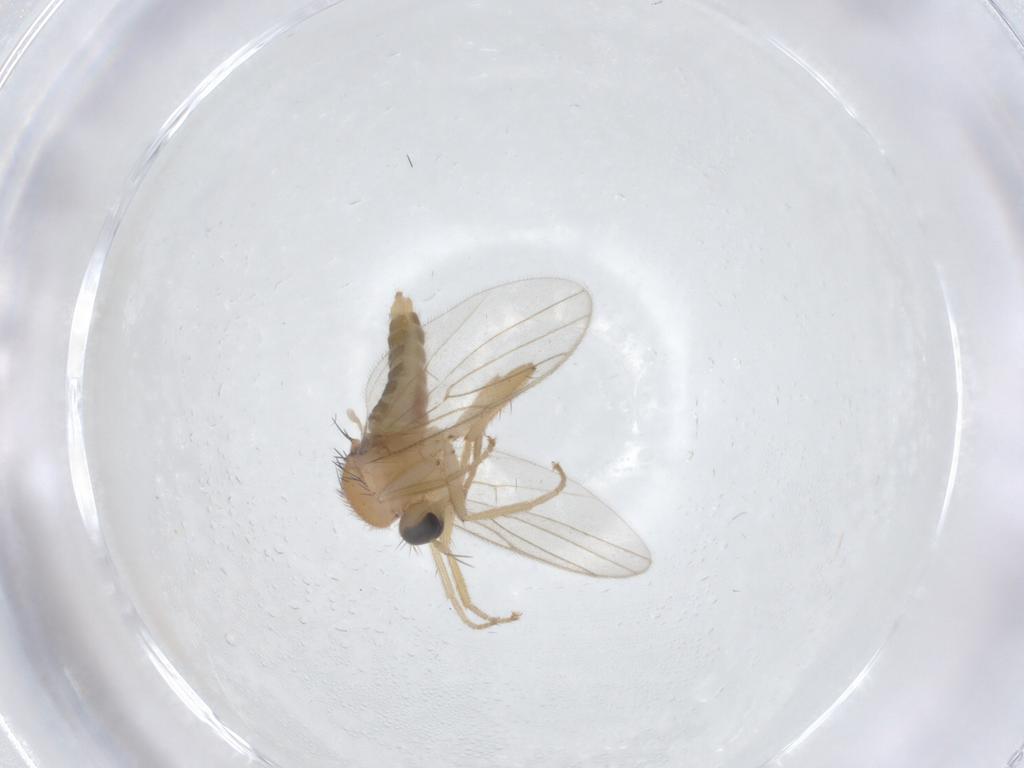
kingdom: Animalia
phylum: Arthropoda
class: Insecta
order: Diptera
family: Hybotidae
